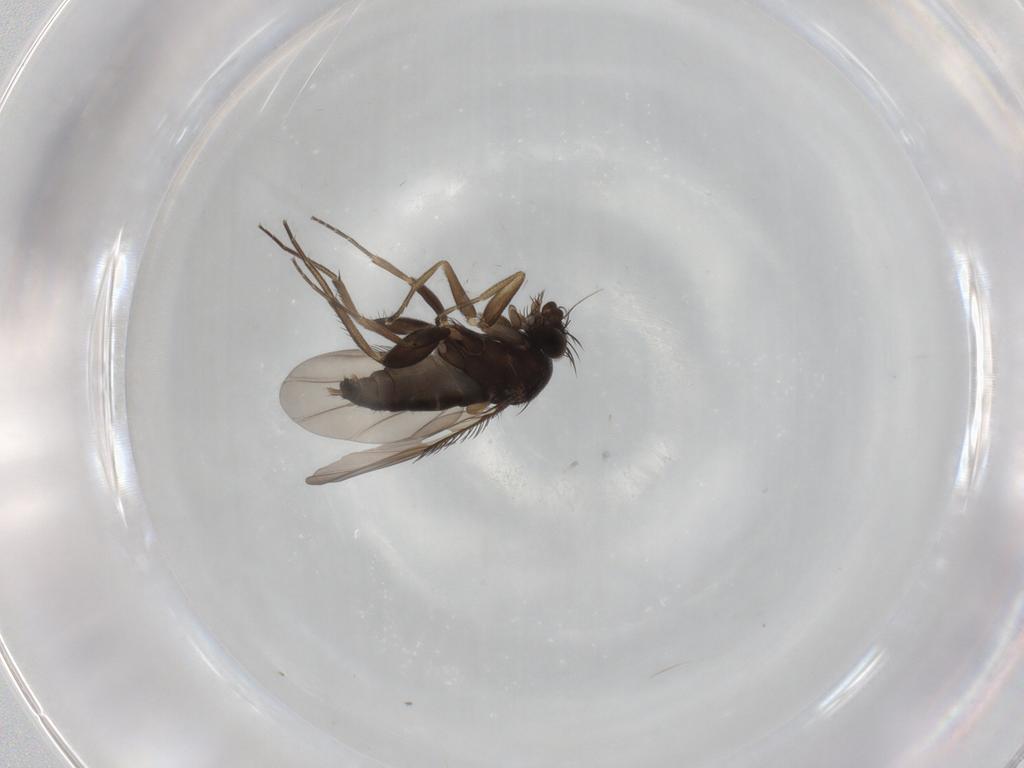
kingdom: Animalia
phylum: Arthropoda
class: Insecta
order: Diptera
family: Phoridae
